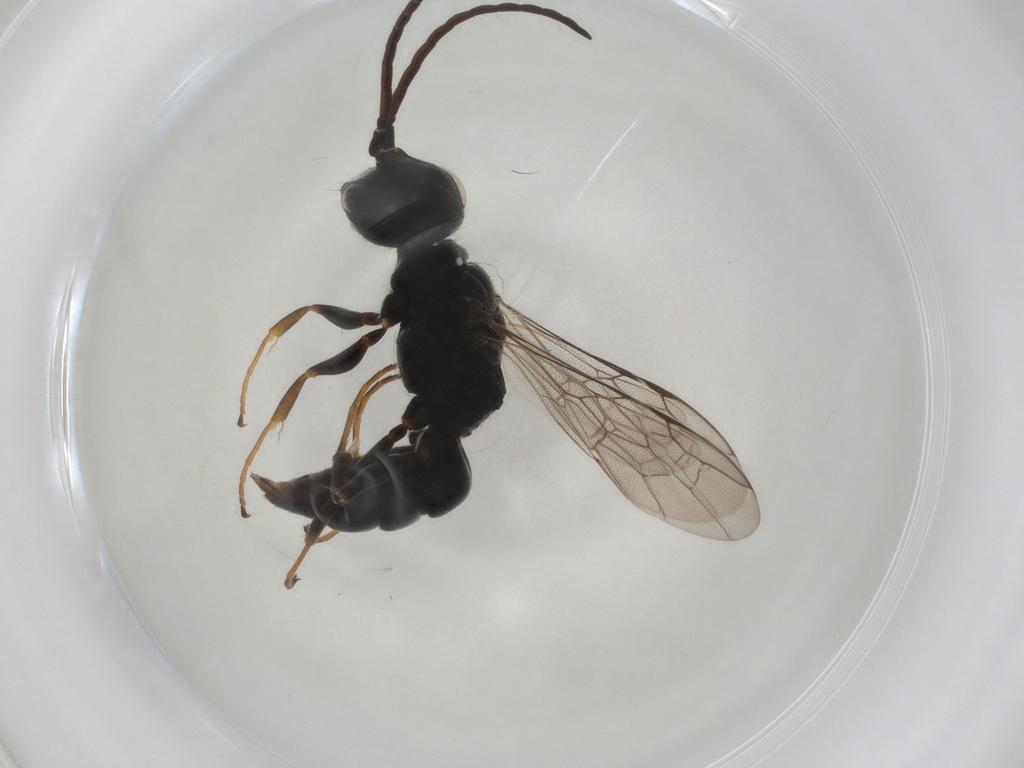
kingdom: Animalia
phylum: Arthropoda
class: Insecta
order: Hymenoptera
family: Ampulicidae
